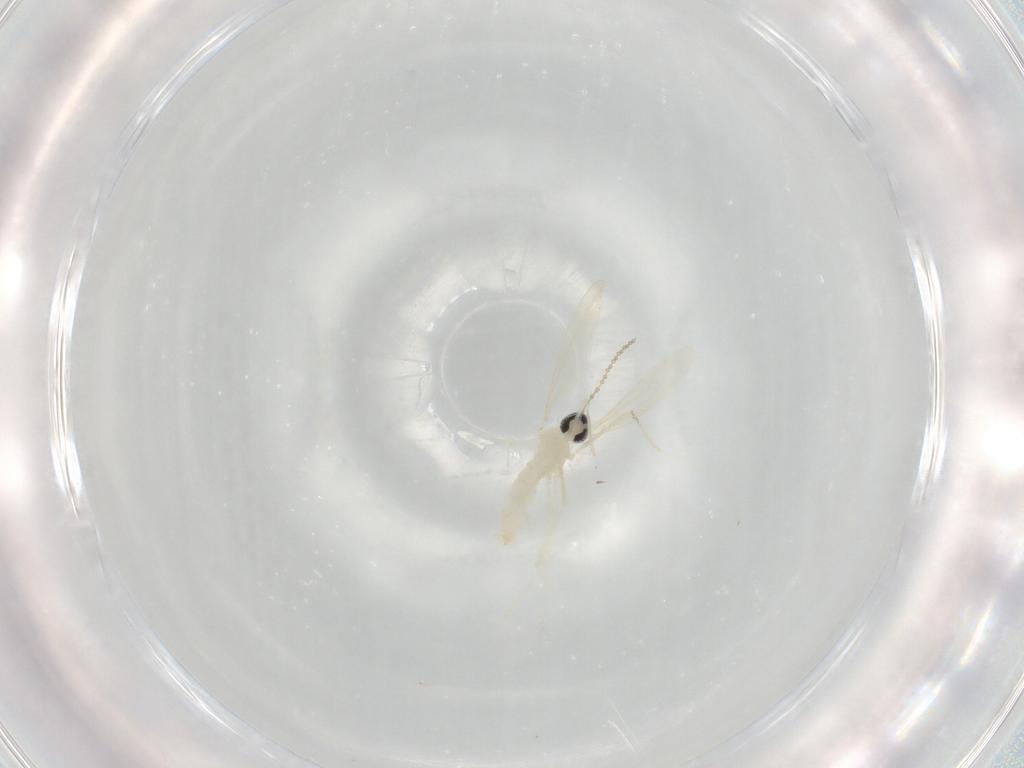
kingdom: Animalia
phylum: Arthropoda
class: Insecta
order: Diptera
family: Cecidomyiidae
